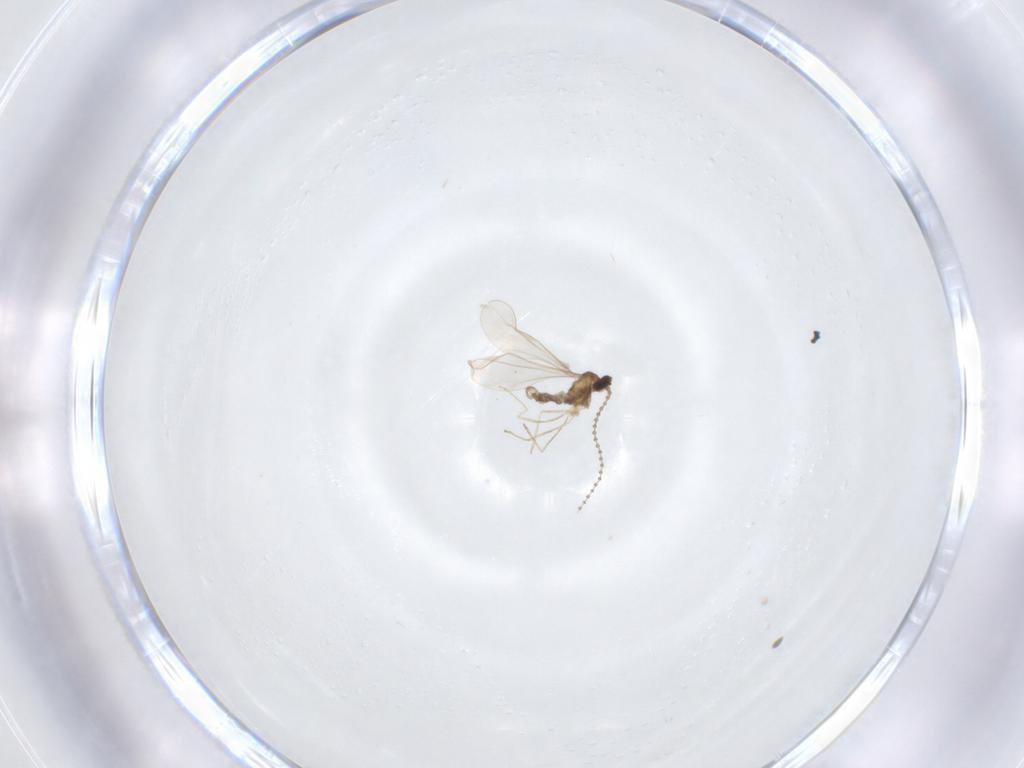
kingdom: Animalia
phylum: Arthropoda
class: Insecta
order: Diptera
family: Cecidomyiidae
